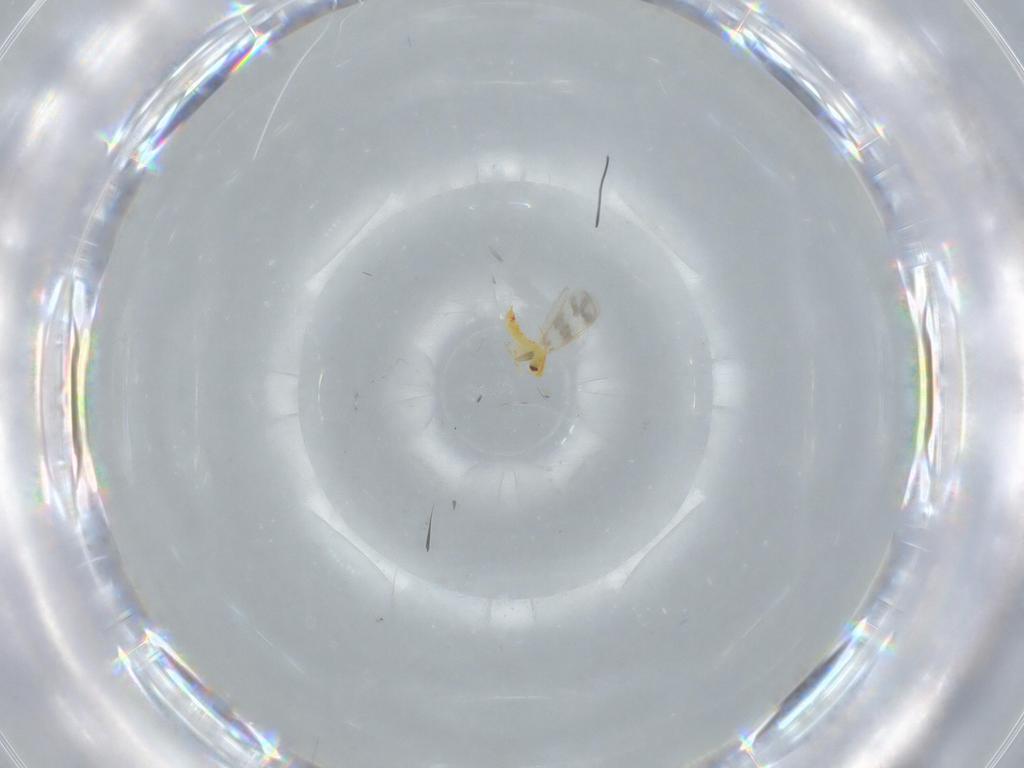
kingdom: Animalia
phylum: Arthropoda
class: Insecta
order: Hemiptera
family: Aleyrodidae
